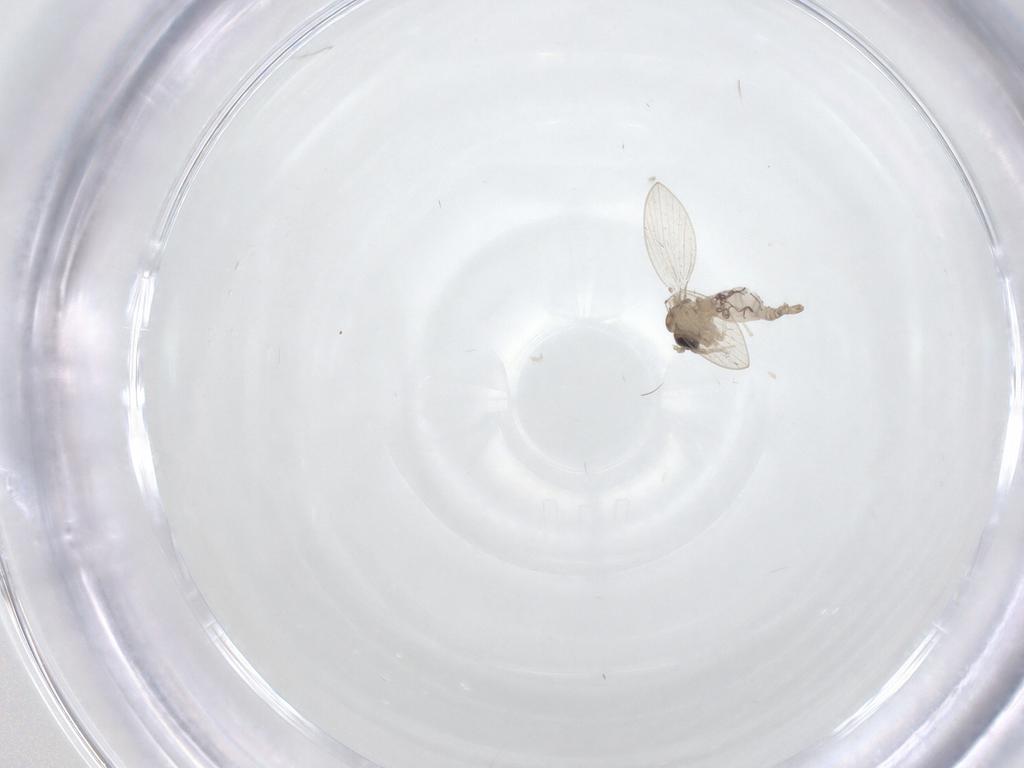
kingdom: Animalia
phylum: Arthropoda
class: Insecta
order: Diptera
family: Psychodidae
